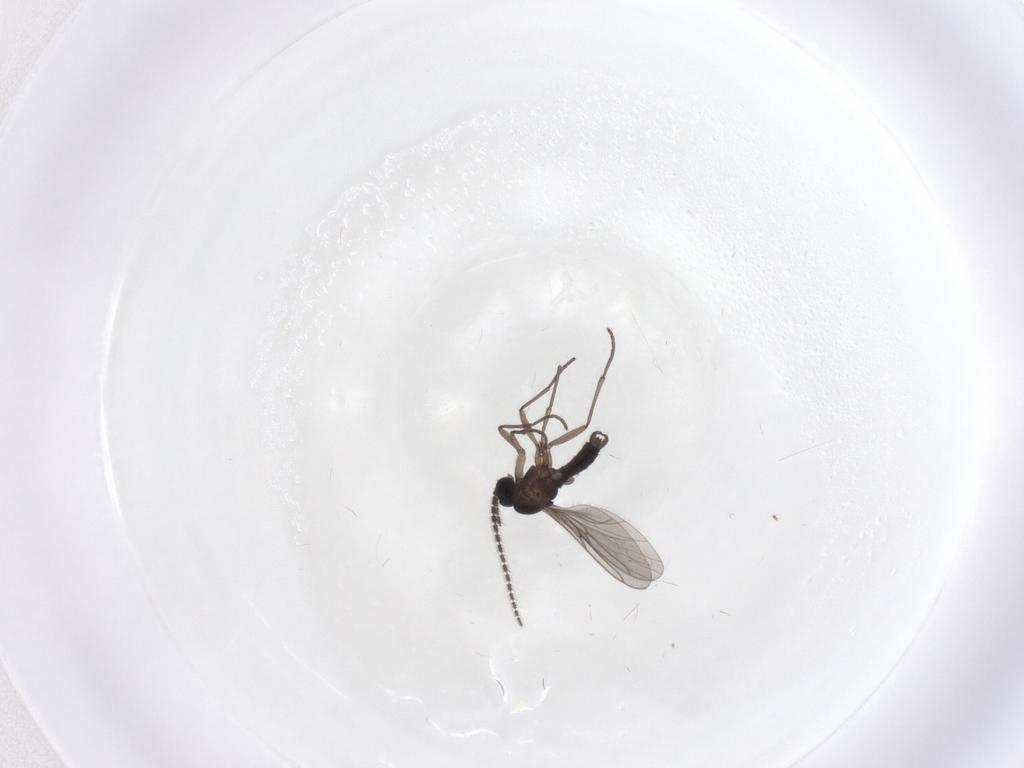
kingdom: Animalia
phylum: Arthropoda
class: Insecta
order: Diptera
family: Sciaridae
